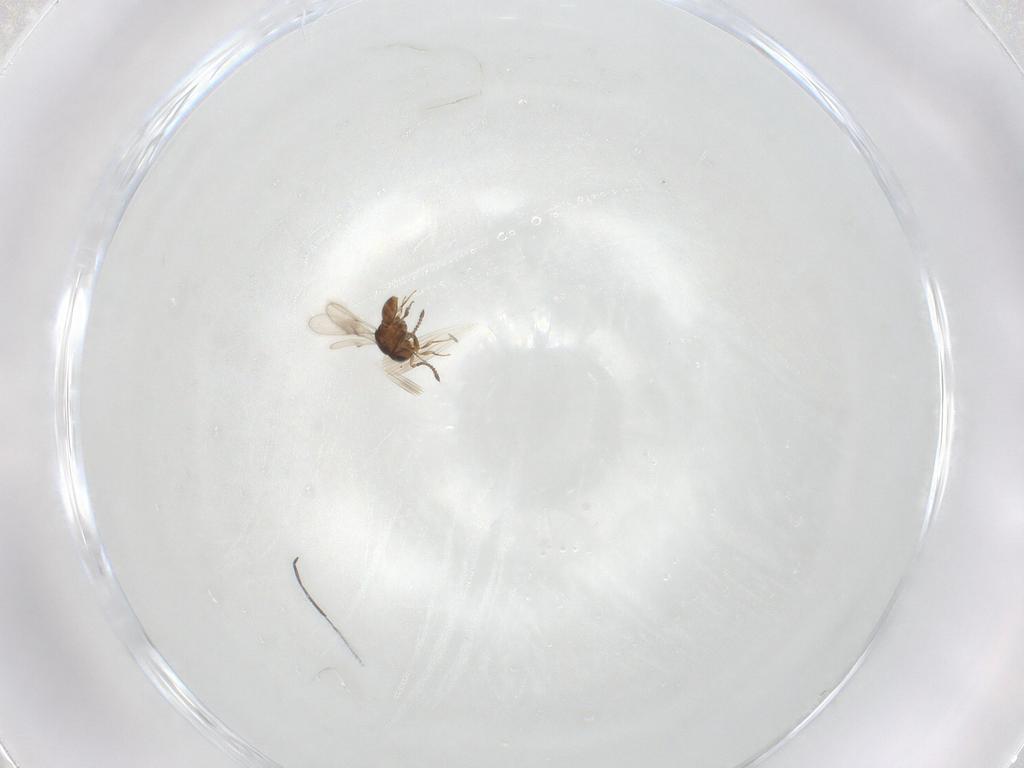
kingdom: Animalia
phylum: Arthropoda
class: Insecta
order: Hymenoptera
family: Scelionidae
